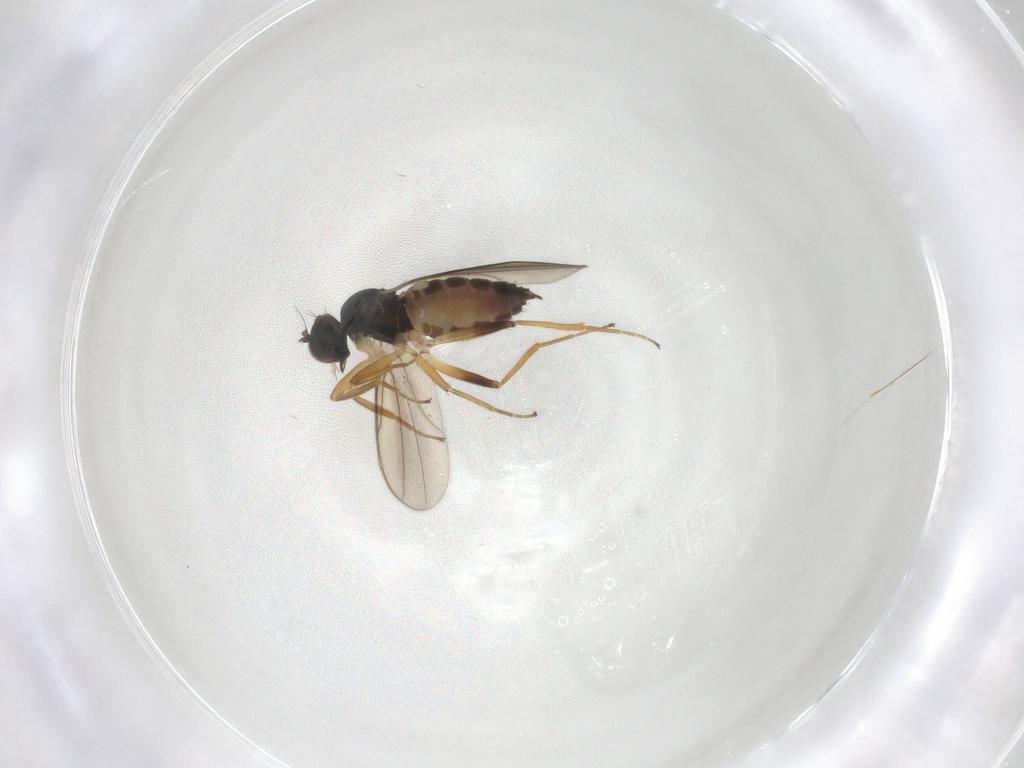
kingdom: Animalia
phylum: Arthropoda
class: Insecta
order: Diptera
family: Hybotidae
